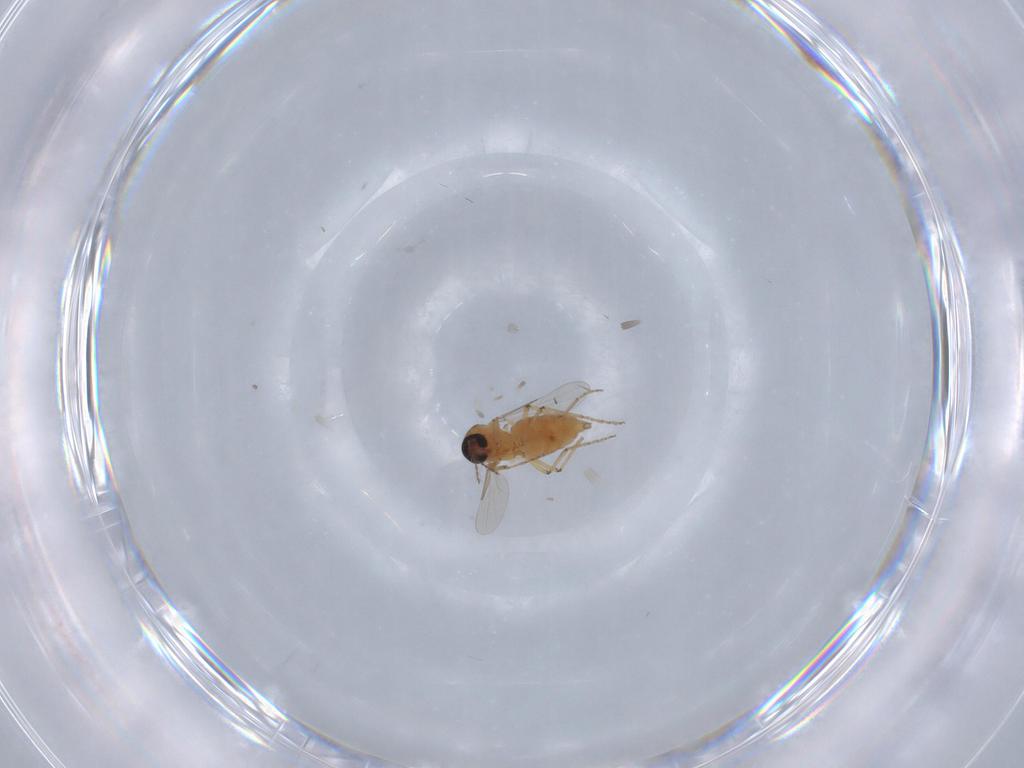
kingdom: Animalia
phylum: Arthropoda
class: Insecta
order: Diptera
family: Ceratopogonidae
